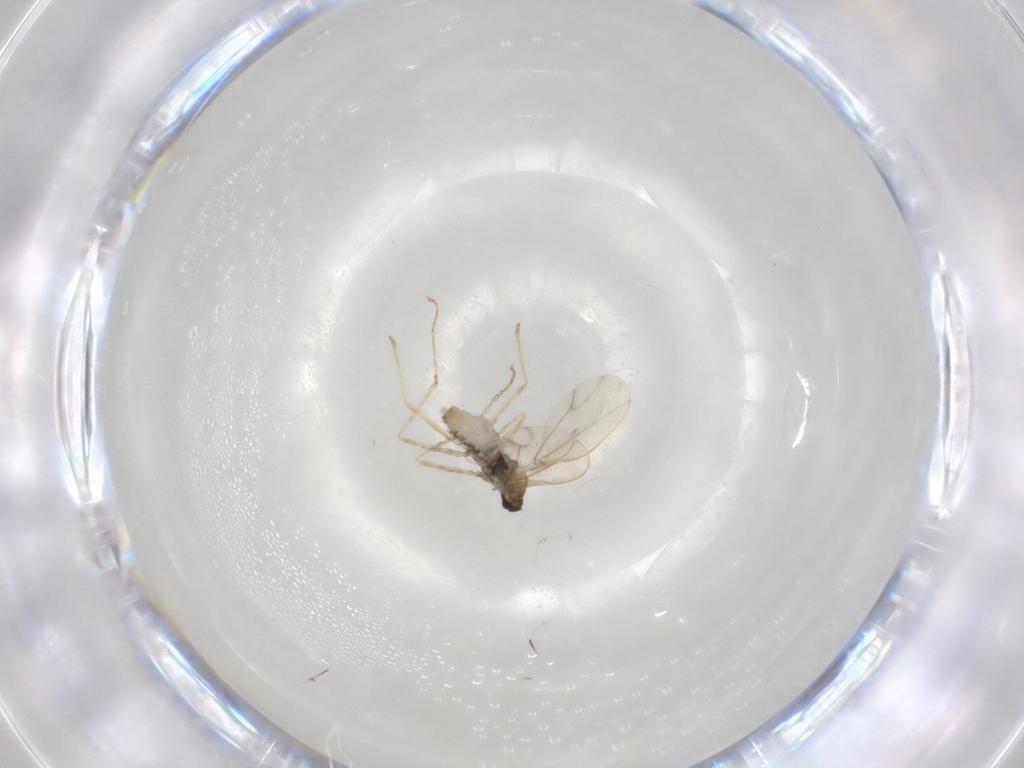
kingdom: Animalia
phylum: Arthropoda
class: Insecta
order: Diptera
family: Cecidomyiidae
